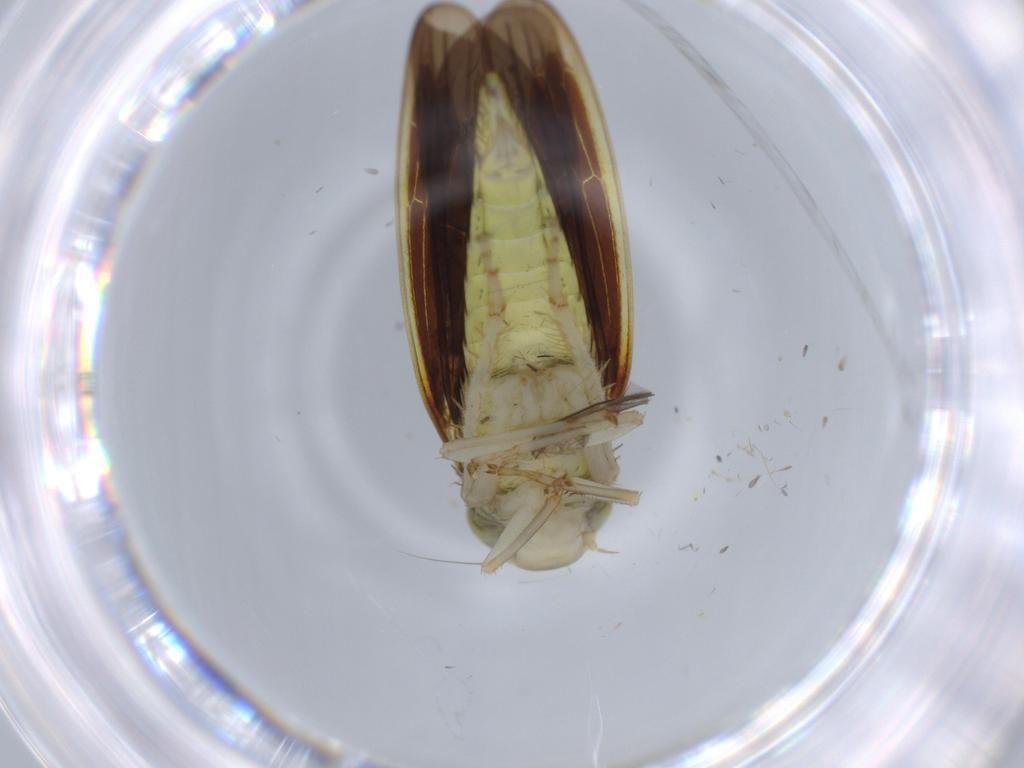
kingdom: Animalia
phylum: Arthropoda
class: Insecta
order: Hemiptera
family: Cicadellidae
